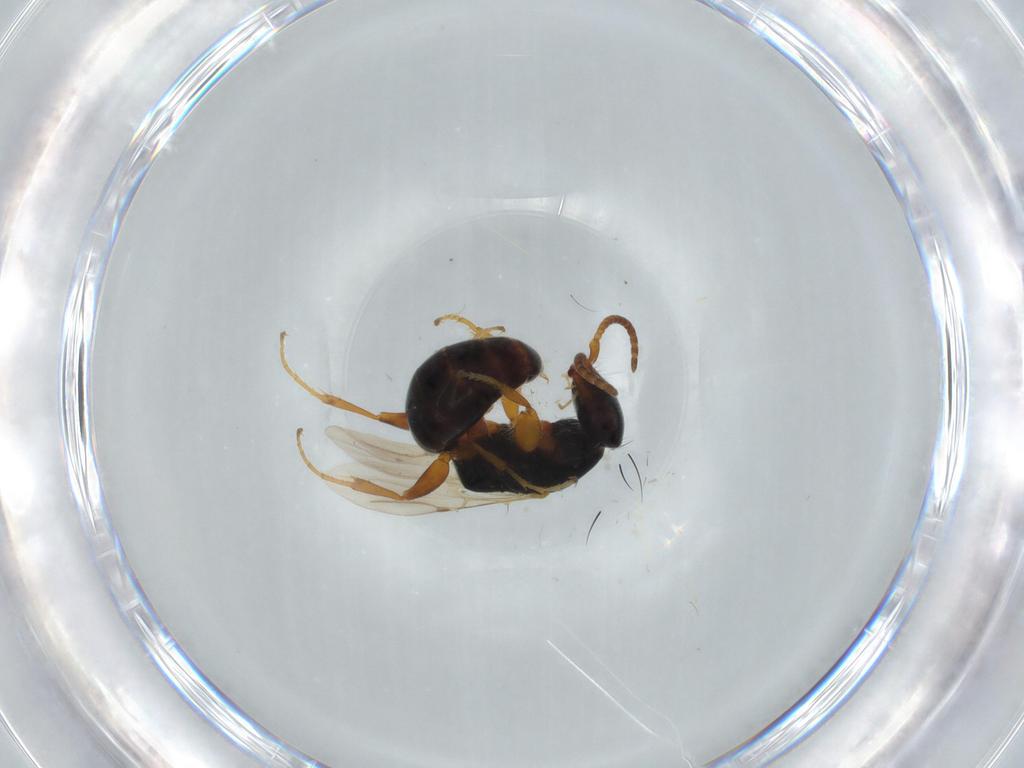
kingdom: Animalia
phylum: Arthropoda
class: Insecta
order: Hymenoptera
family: Bethylidae
